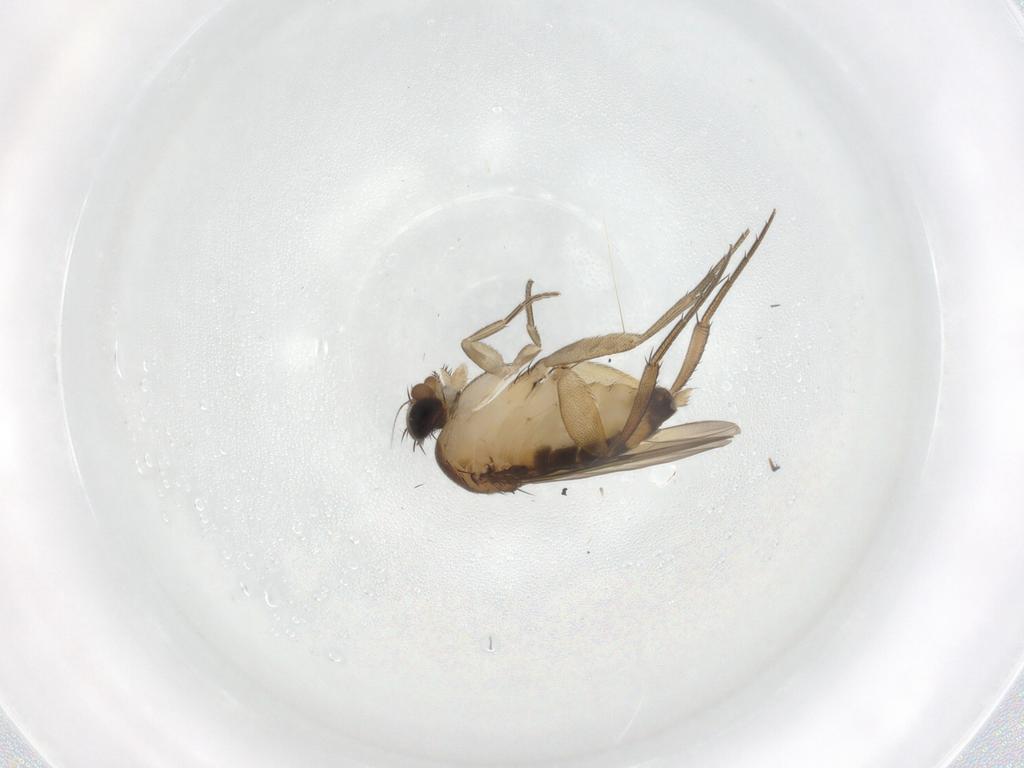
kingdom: Animalia
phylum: Arthropoda
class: Insecta
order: Diptera
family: Phoridae
